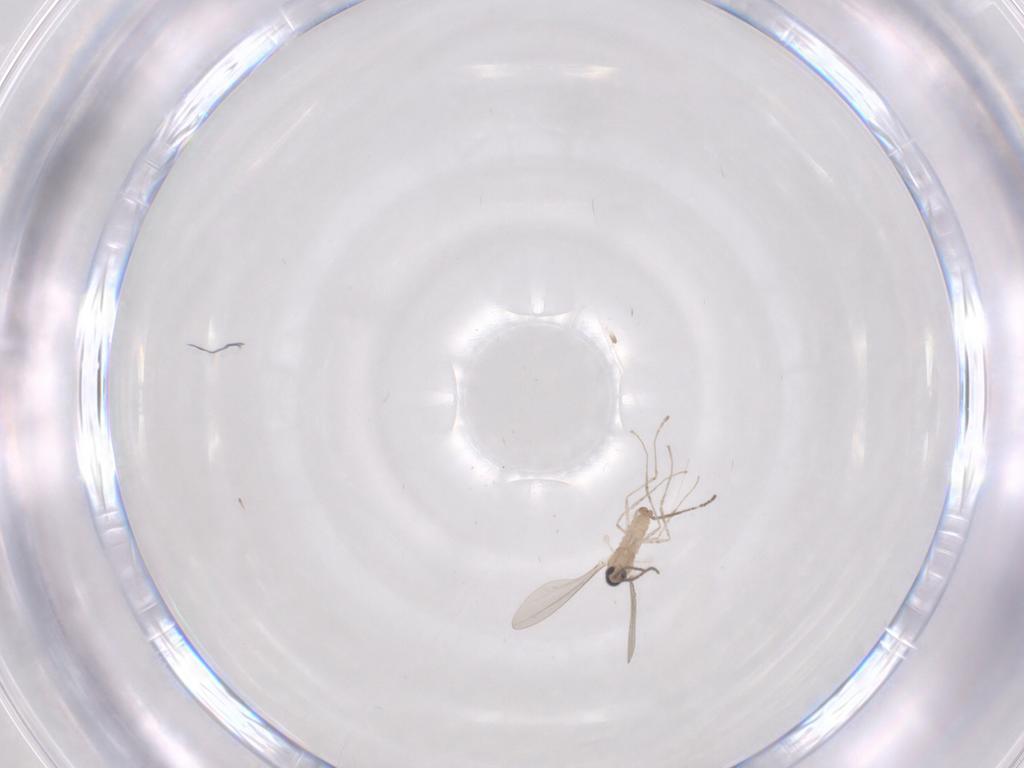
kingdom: Animalia
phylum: Arthropoda
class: Insecta
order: Diptera
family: Cecidomyiidae
